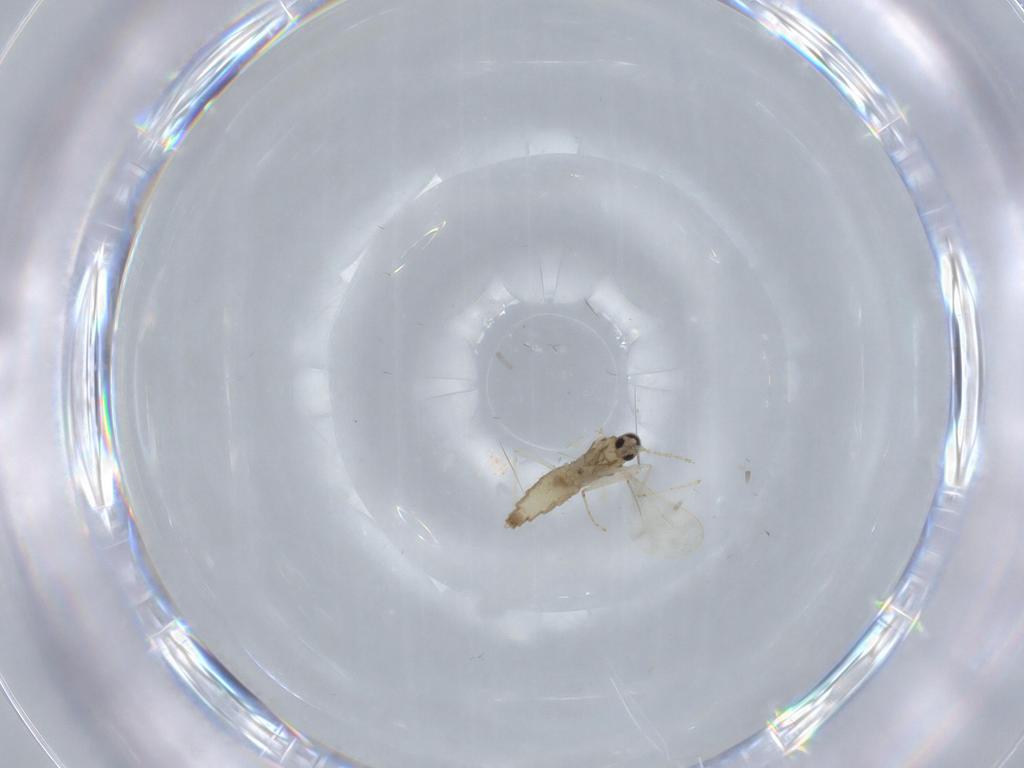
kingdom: Animalia
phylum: Arthropoda
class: Insecta
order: Diptera
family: Cecidomyiidae
